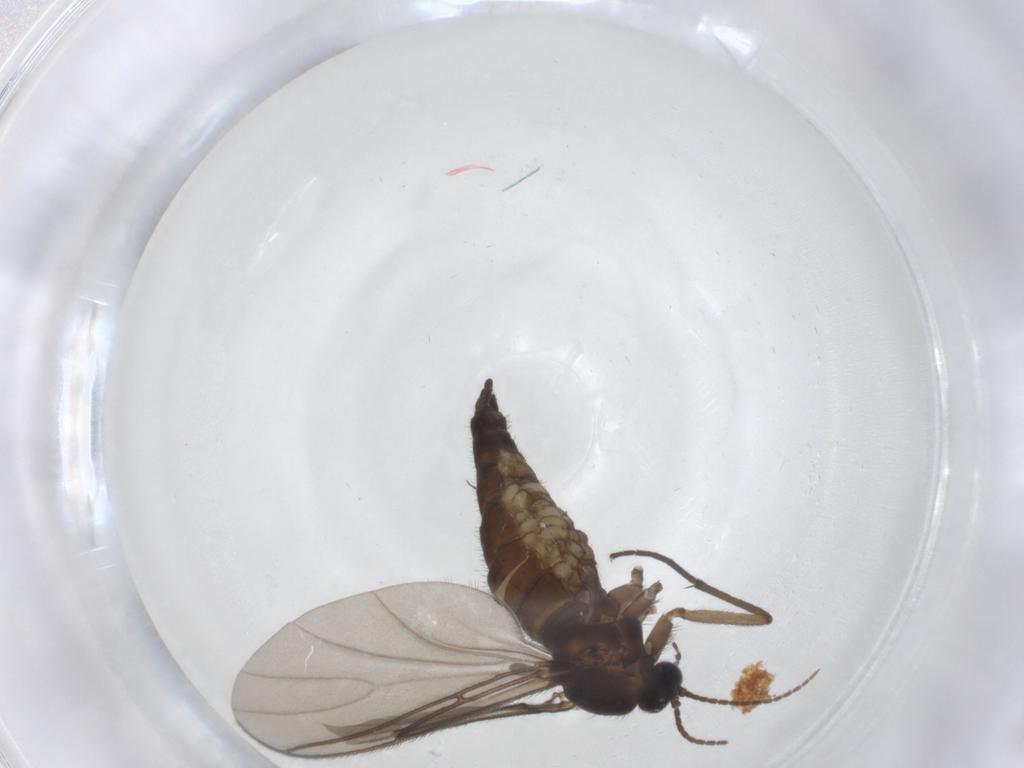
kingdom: Animalia
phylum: Arthropoda
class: Insecta
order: Diptera
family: Sciaridae
